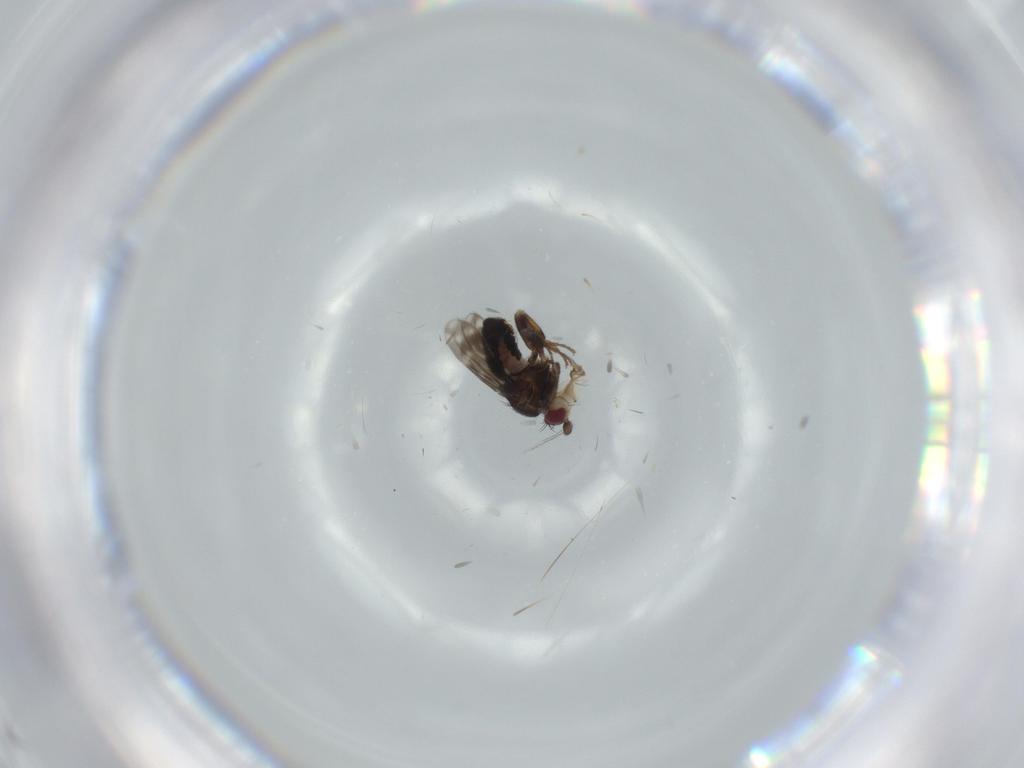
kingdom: Animalia
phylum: Arthropoda
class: Insecta
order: Diptera
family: Sphaeroceridae
